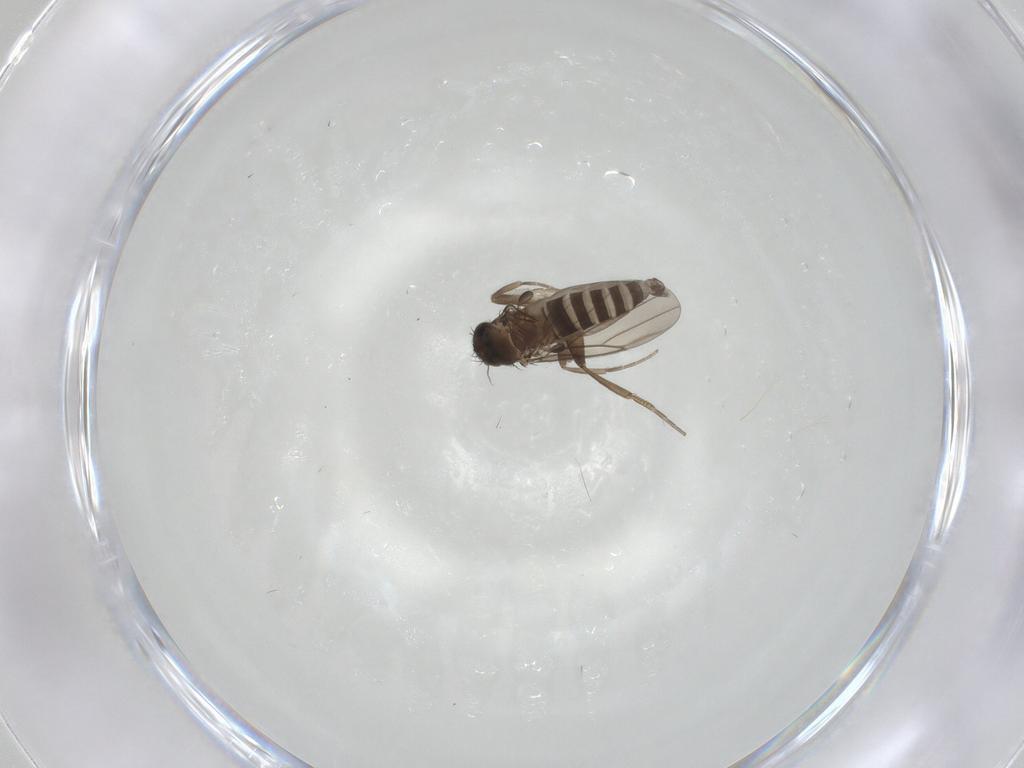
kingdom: Animalia
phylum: Arthropoda
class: Insecta
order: Diptera
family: Phoridae
